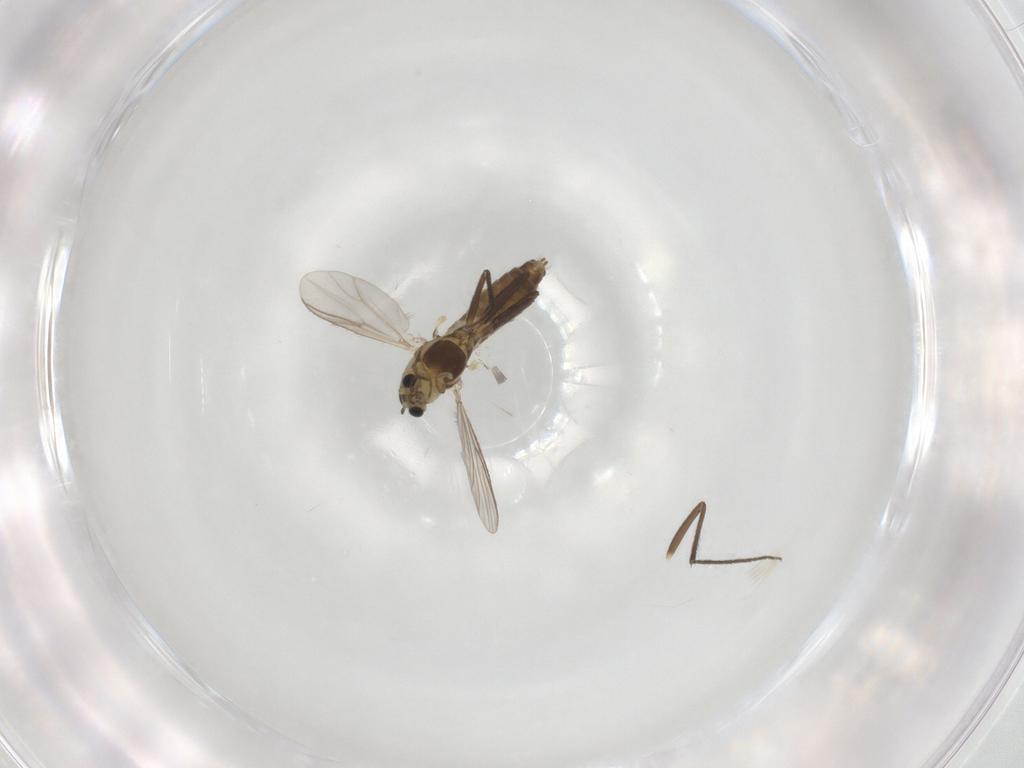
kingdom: Animalia
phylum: Arthropoda
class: Insecta
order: Diptera
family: Chironomidae
